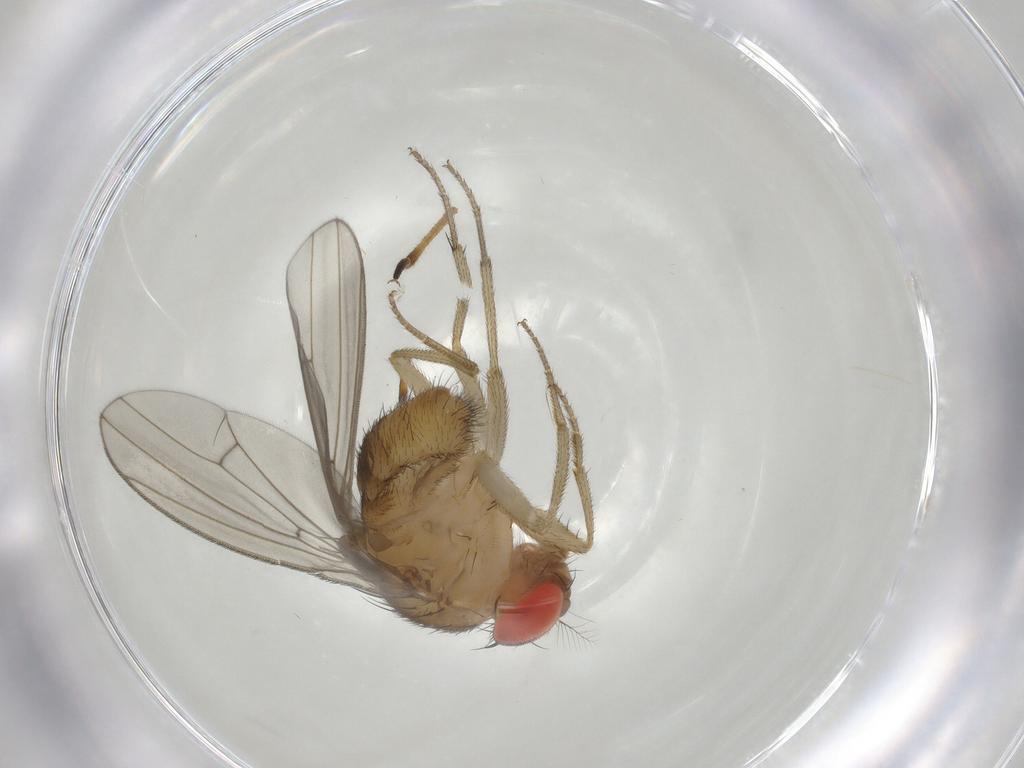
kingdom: Animalia
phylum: Arthropoda
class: Insecta
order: Diptera
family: Drosophilidae
